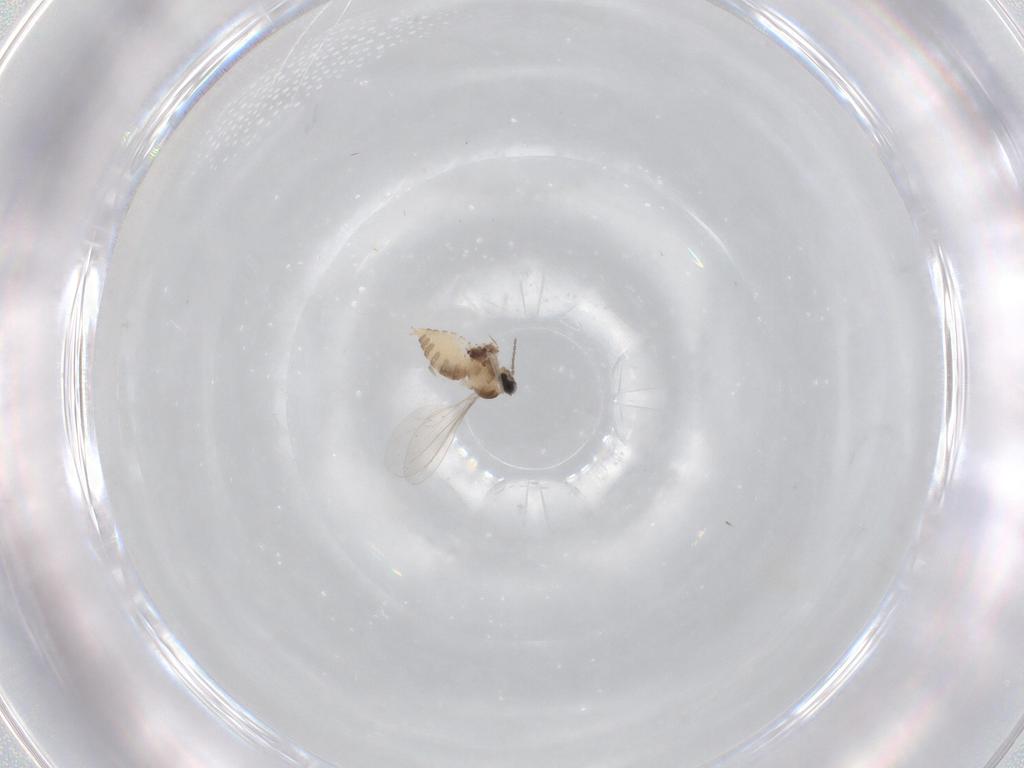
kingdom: Animalia
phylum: Arthropoda
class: Insecta
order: Diptera
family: Cecidomyiidae
